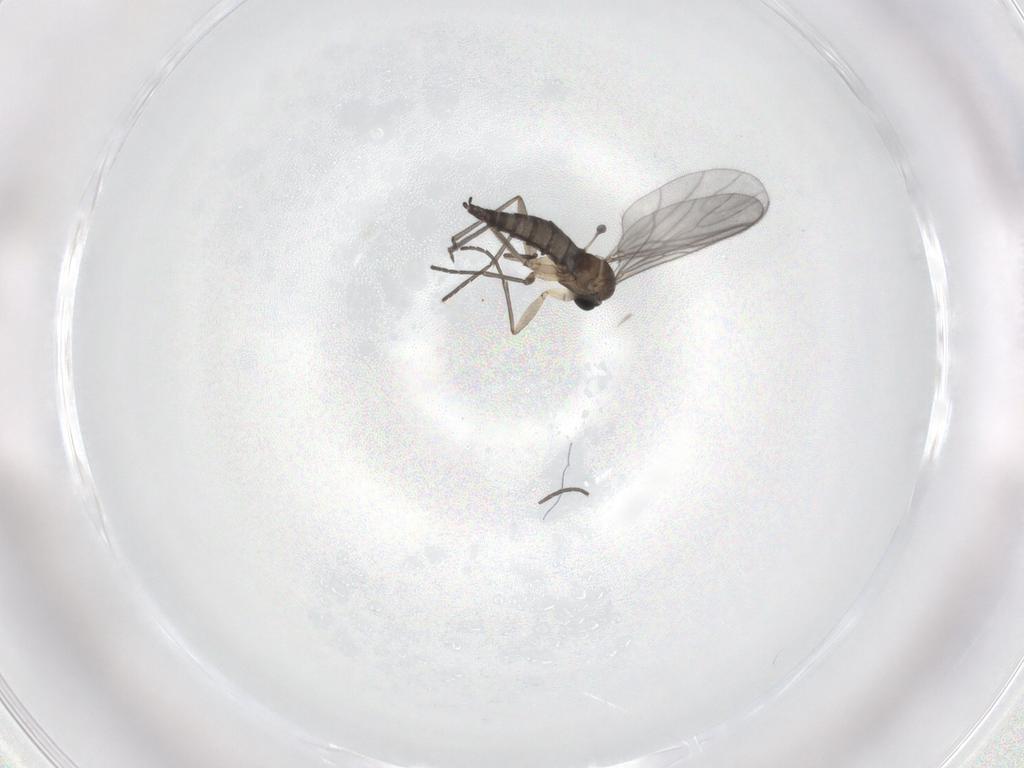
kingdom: Animalia
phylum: Arthropoda
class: Insecta
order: Diptera
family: Sciaridae
